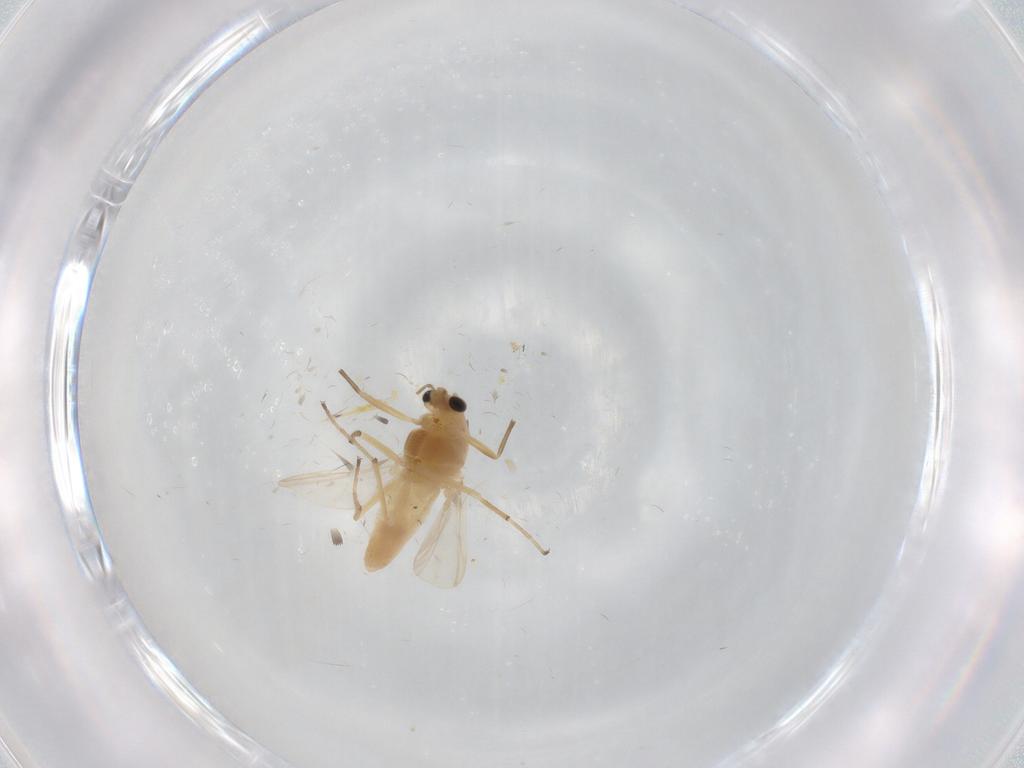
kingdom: Animalia
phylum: Arthropoda
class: Insecta
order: Diptera
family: Chironomidae
